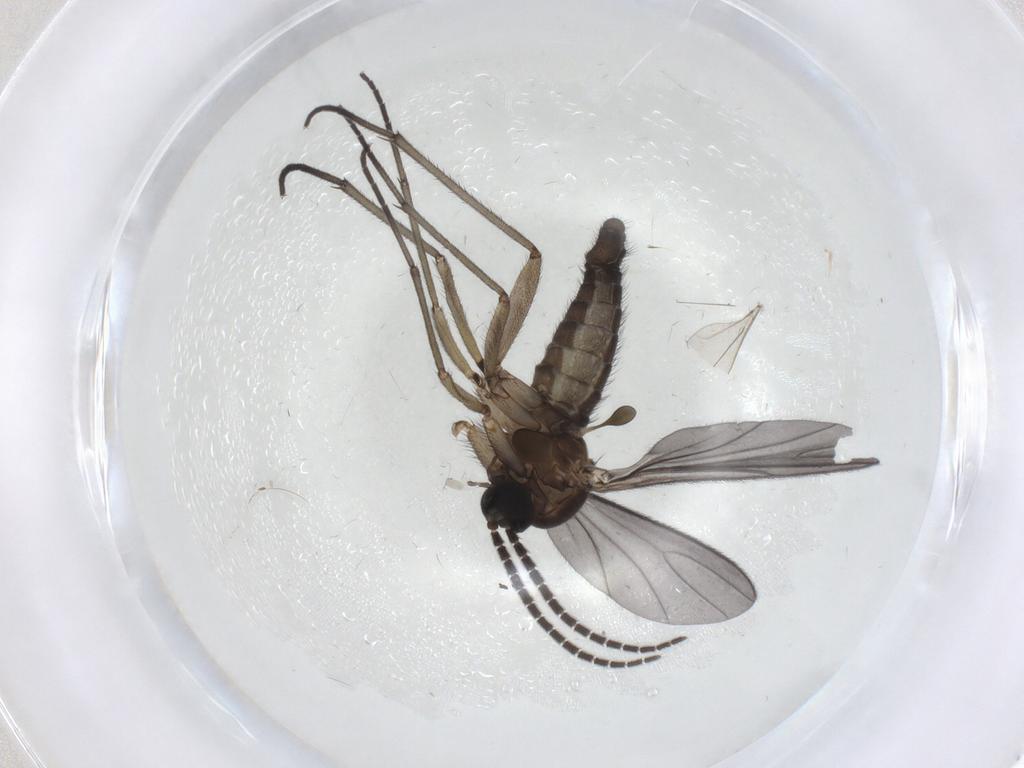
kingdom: Animalia
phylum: Arthropoda
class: Insecta
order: Diptera
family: Sciaridae
